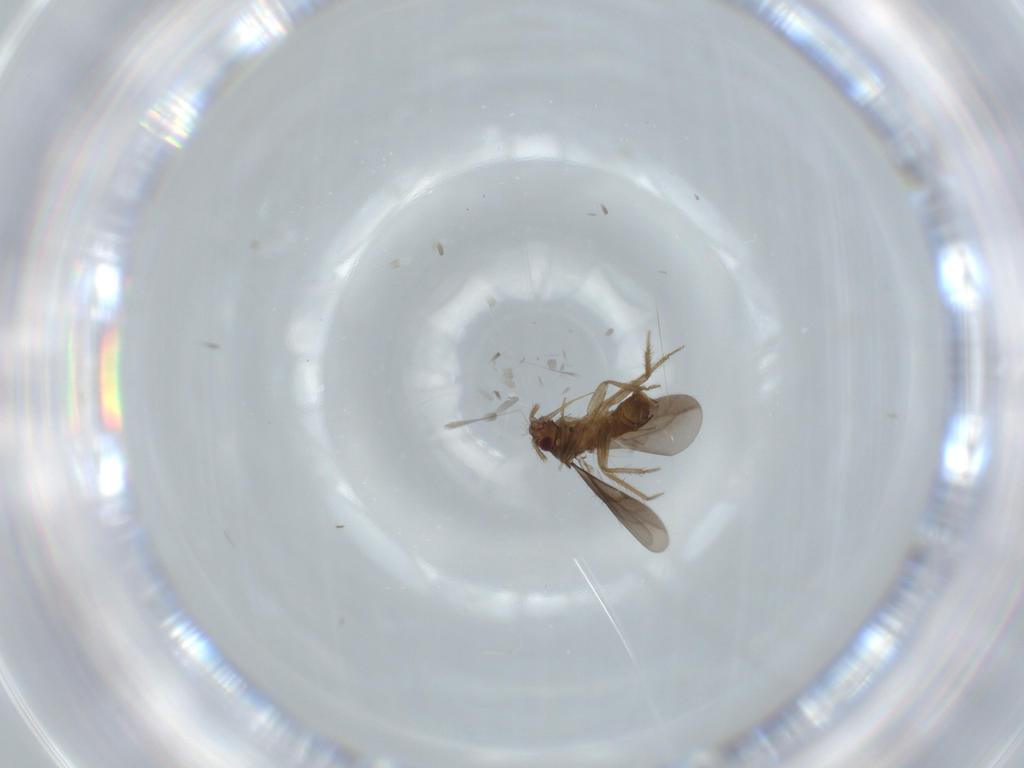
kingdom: Animalia
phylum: Arthropoda
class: Insecta
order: Hemiptera
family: Ceratocombidae
